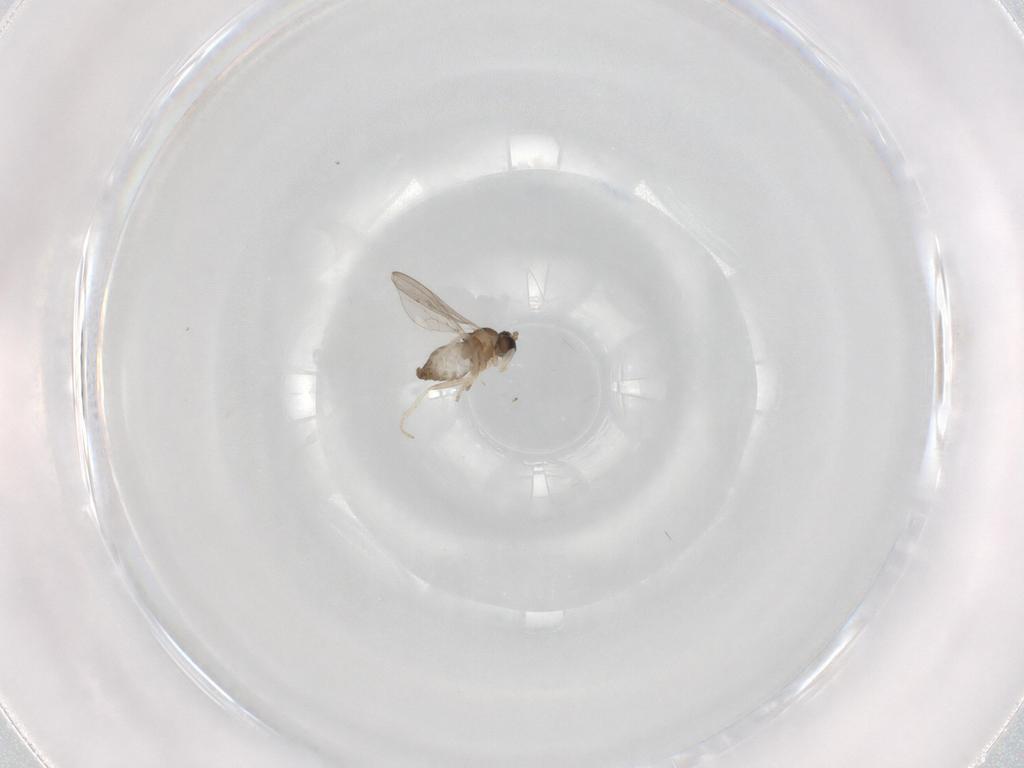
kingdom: Animalia
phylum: Arthropoda
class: Insecta
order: Diptera
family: Cecidomyiidae
